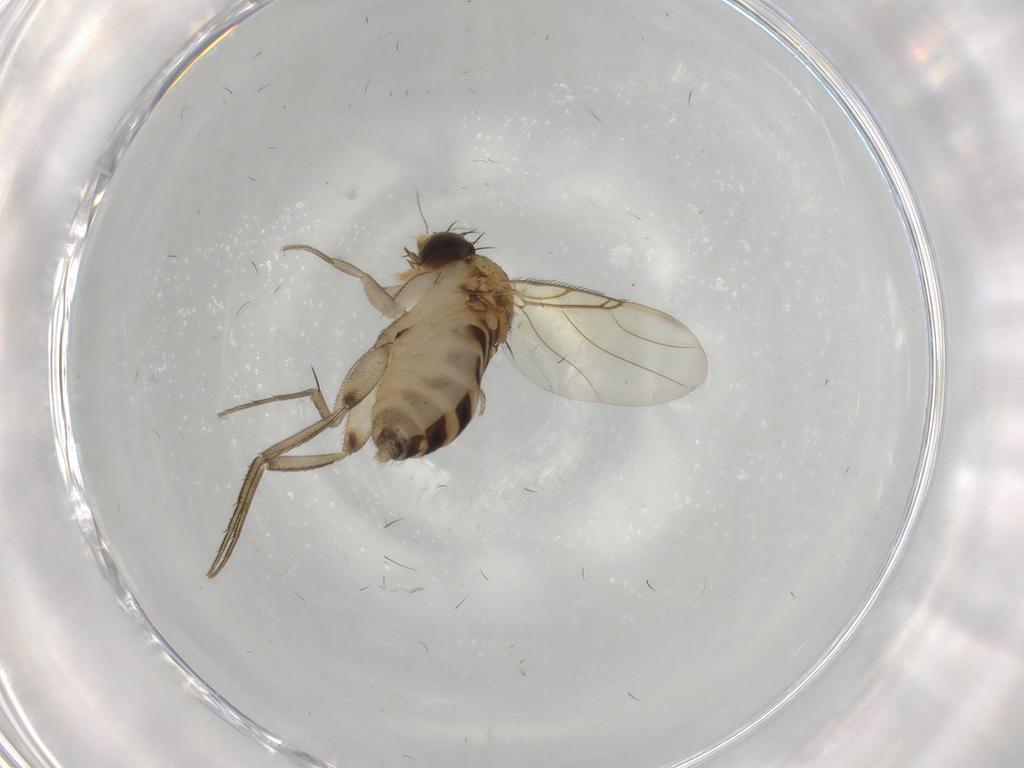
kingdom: Animalia
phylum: Arthropoda
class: Insecta
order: Diptera
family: Phoridae
